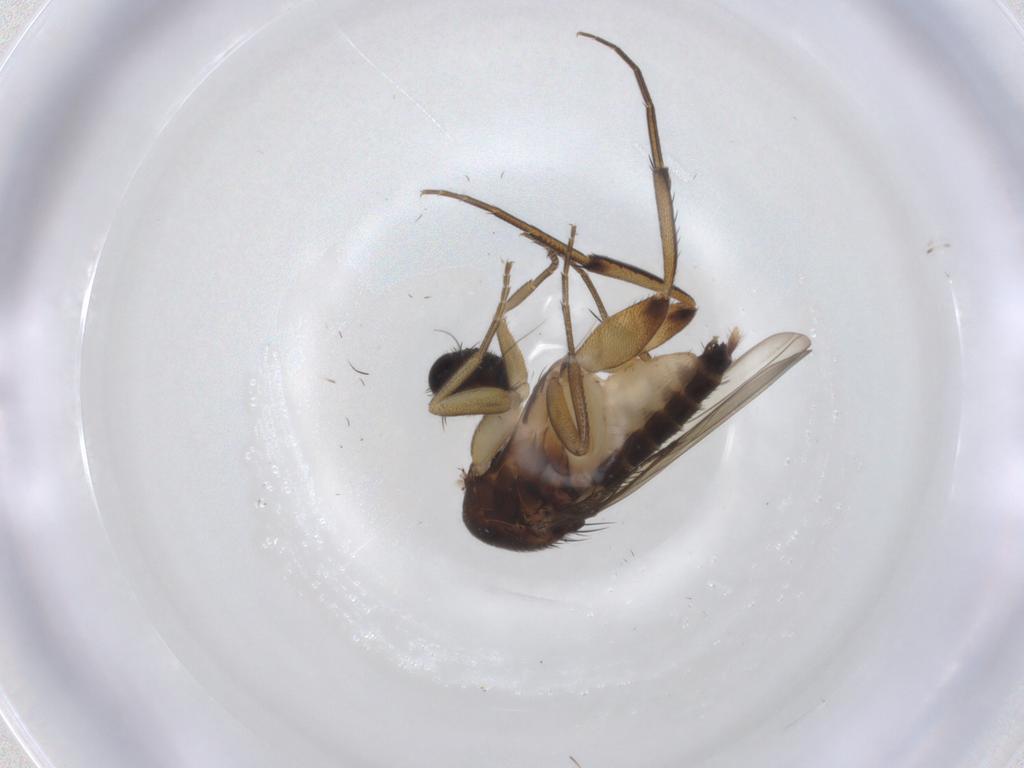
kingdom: Animalia
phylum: Arthropoda
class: Insecta
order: Diptera
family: Phoridae
